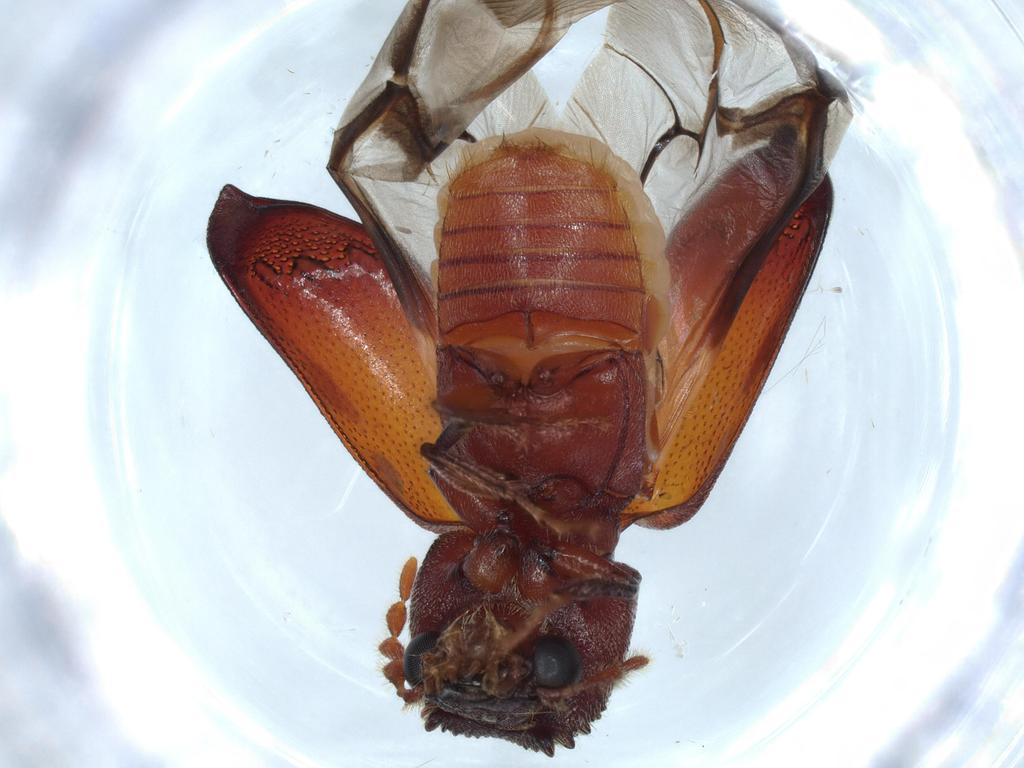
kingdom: Animalia
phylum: Arthropoda
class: Insecta
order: Coleoptera
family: Bostrichidae
